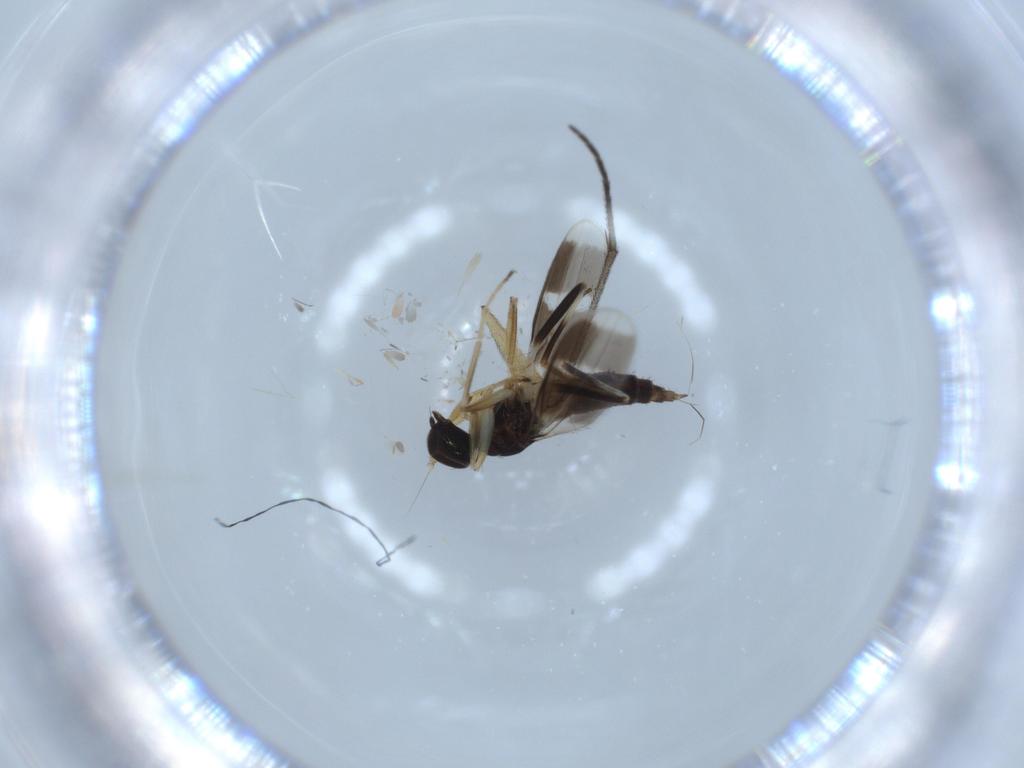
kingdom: Animalia
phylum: Arthropoda
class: Insecta
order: Diptera
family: Hybotidae
